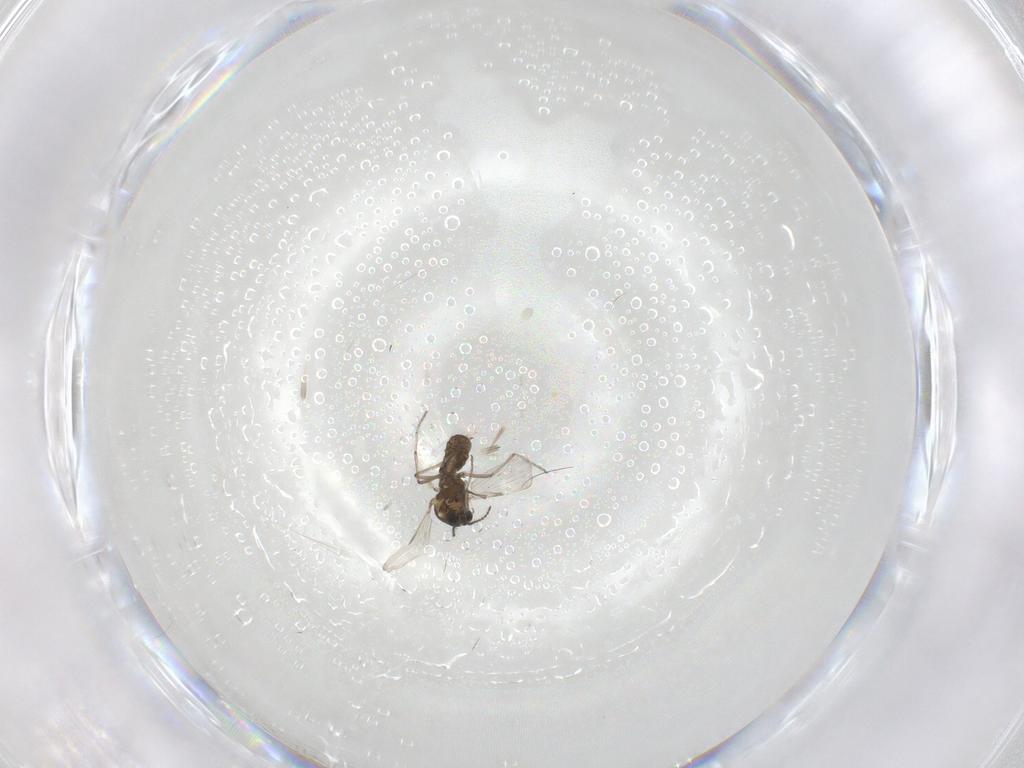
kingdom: Animalia
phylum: Arthropoda
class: Insecta
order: Diptera
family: Ceratopogonidae
